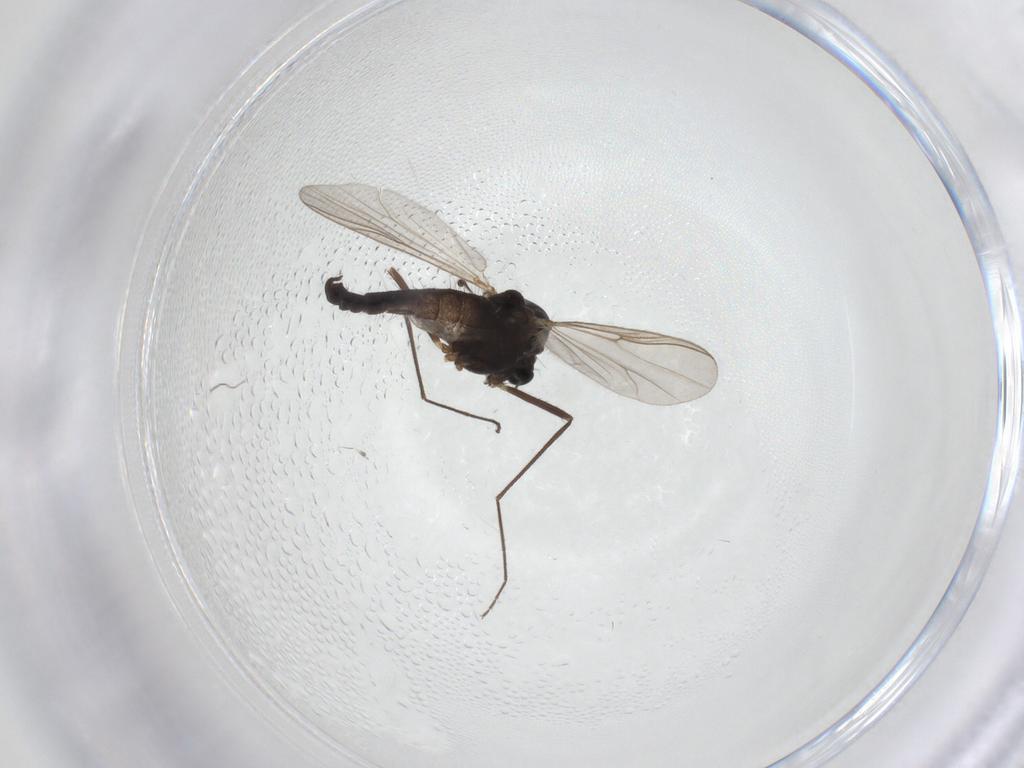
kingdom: Animalia
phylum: Arthropoda
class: Insecta
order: Diptera
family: Chironomidae
